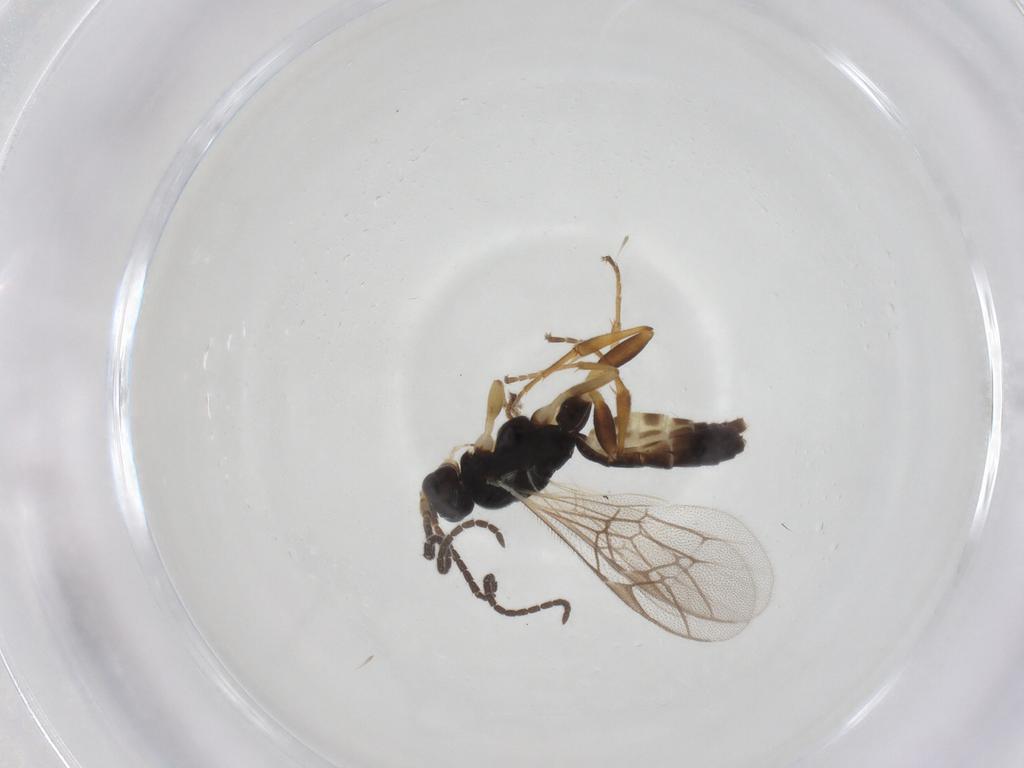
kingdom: Animalia
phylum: Arthropoda
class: Insecta
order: Hymenoptera
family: Ichneumonidae
